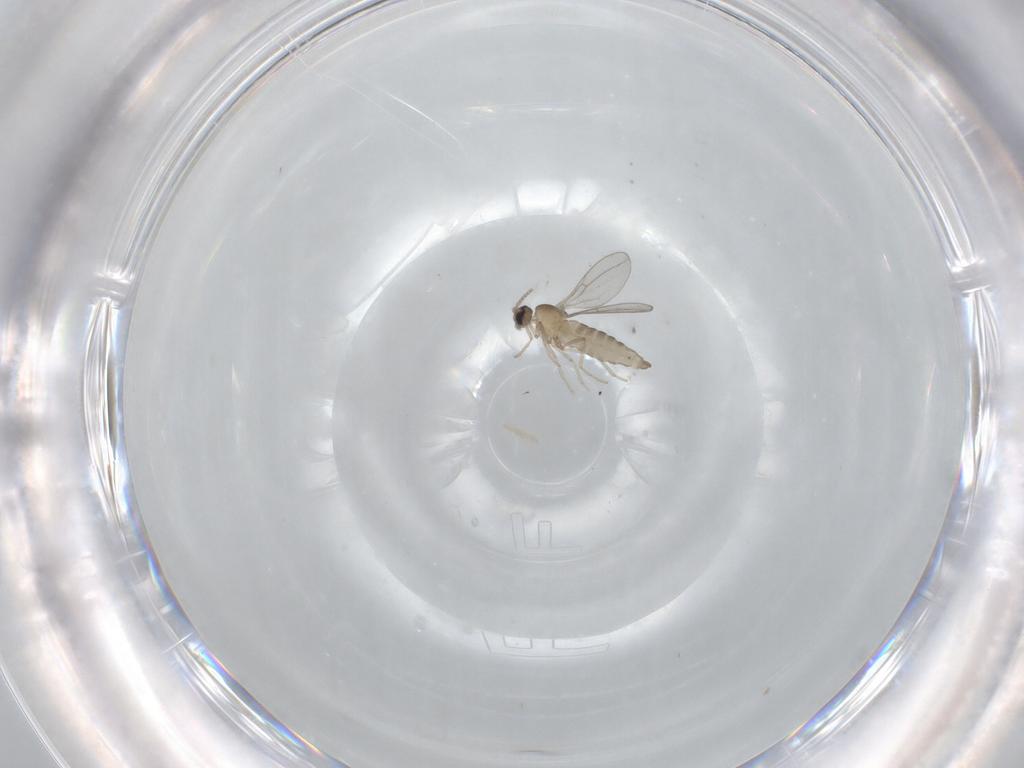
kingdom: Animalia
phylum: Arthropoda
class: Insecta
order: Diptera
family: Cecidomyiidae
